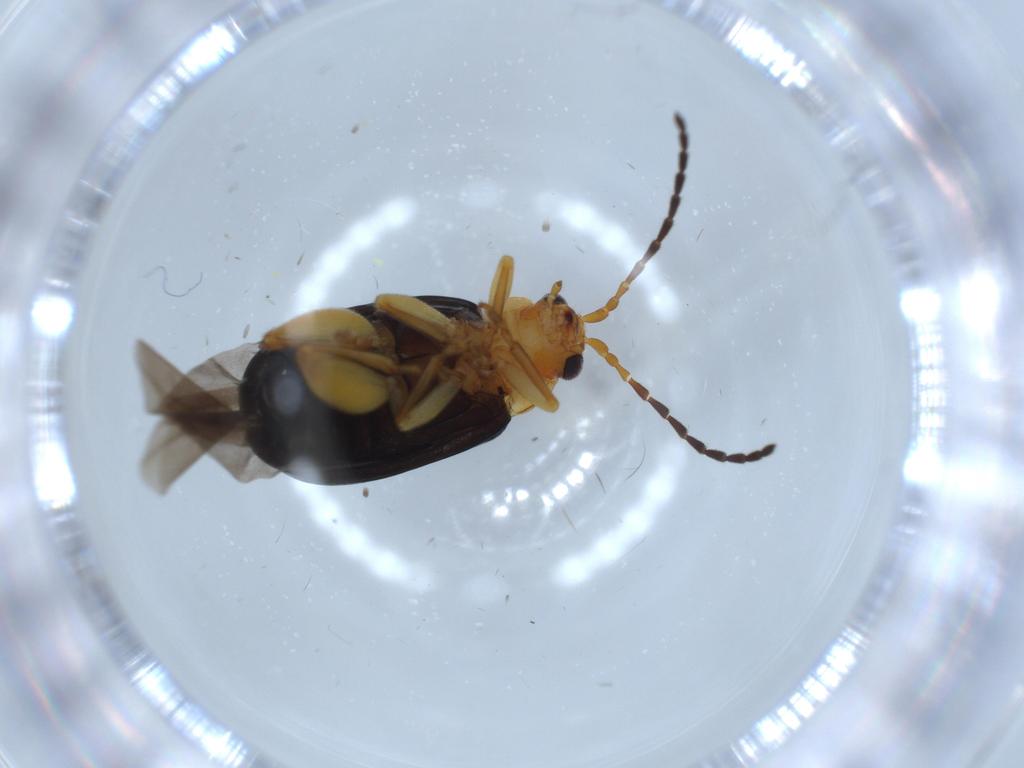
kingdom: Animalia
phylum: Arthropoda
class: Insecta
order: Coleoptera
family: Chrysomelidae
